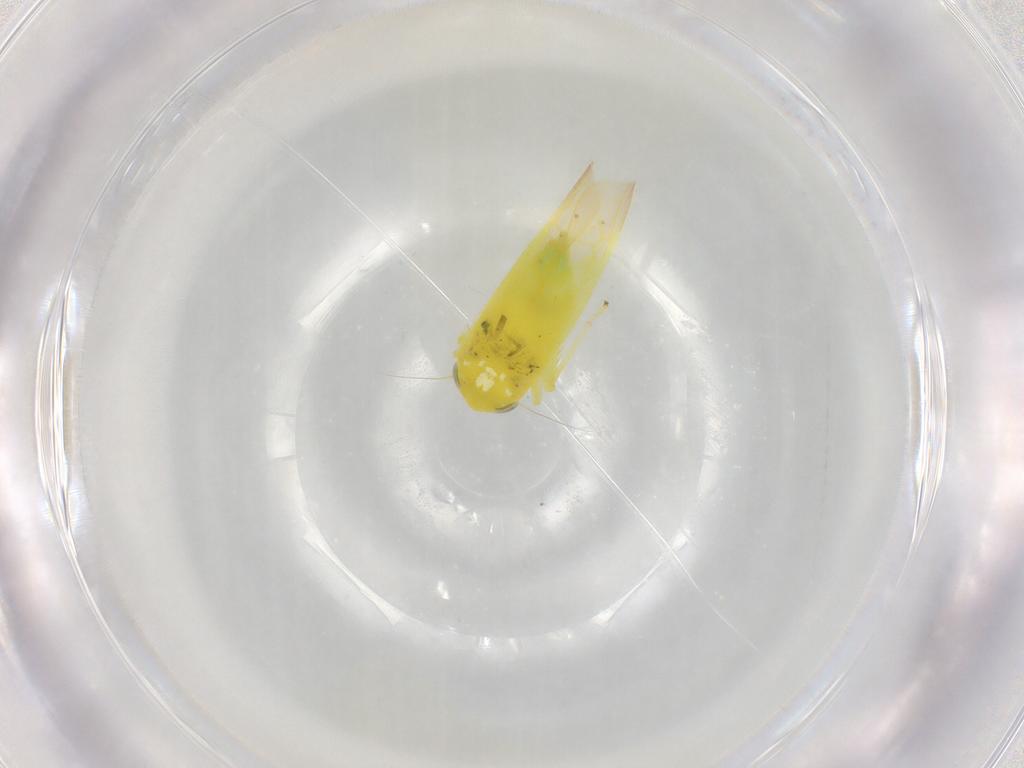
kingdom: Animalia
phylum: Arthropoda
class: Insecta
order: Hemiptera
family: Cicadellidae
